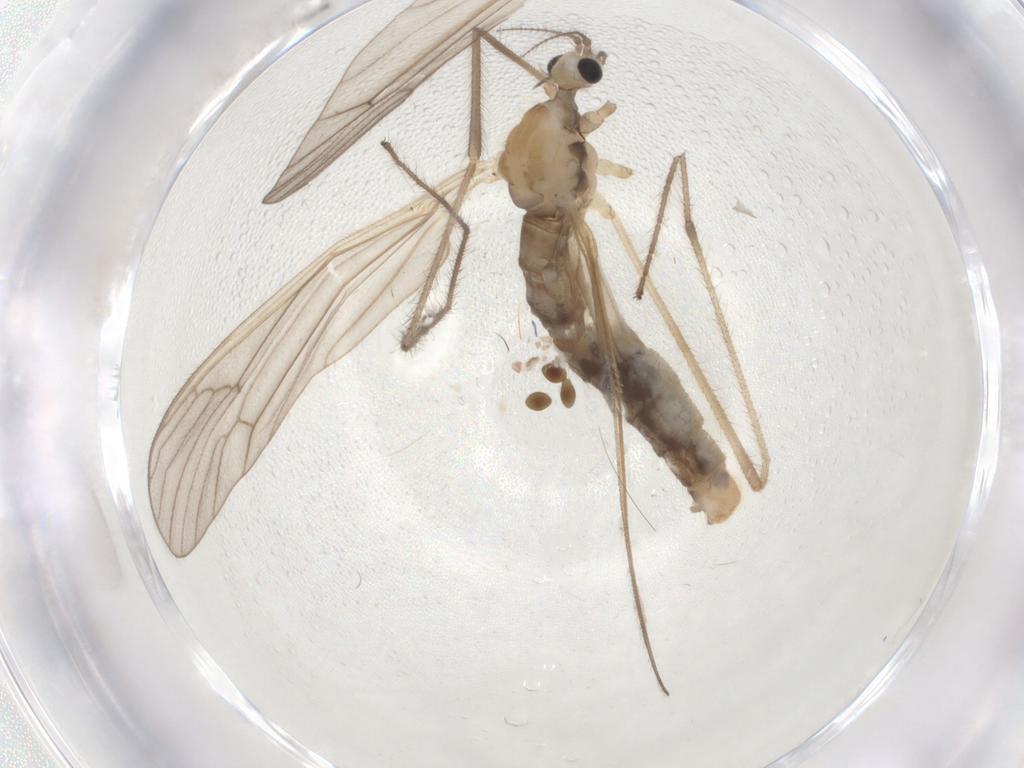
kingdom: Animalia
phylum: Arthropoda
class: Insecta
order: Diptera
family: Limoniidae
